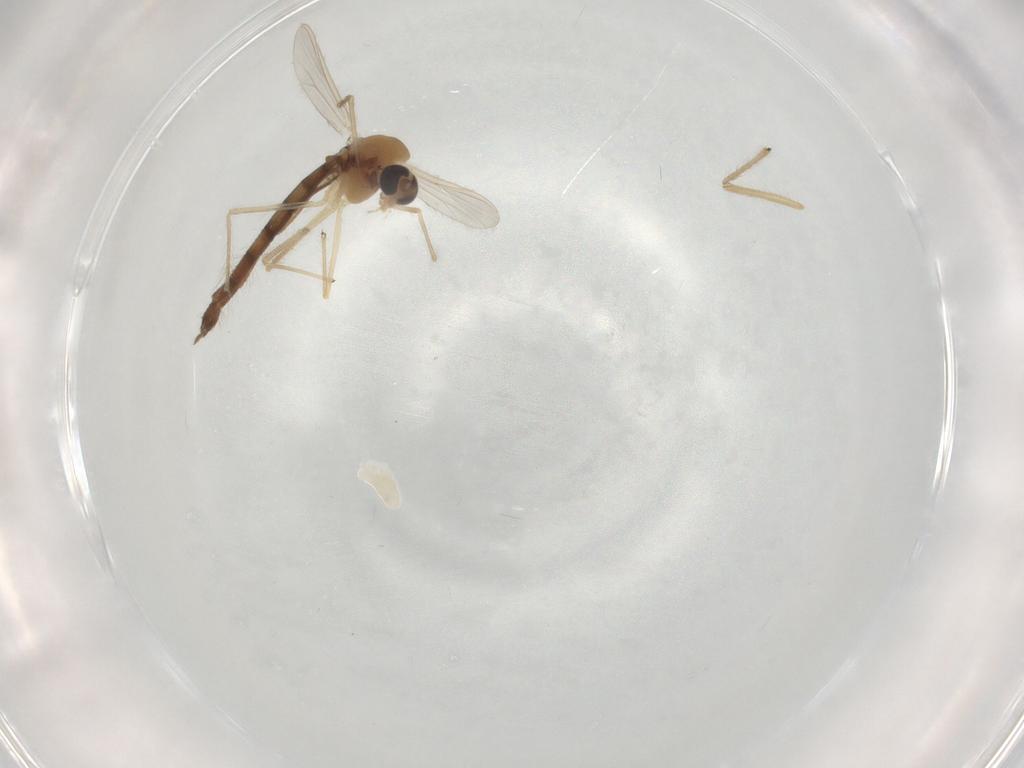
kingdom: Animalia
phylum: Arthropoda
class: Insecta
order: Diptera
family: Chironomidae
